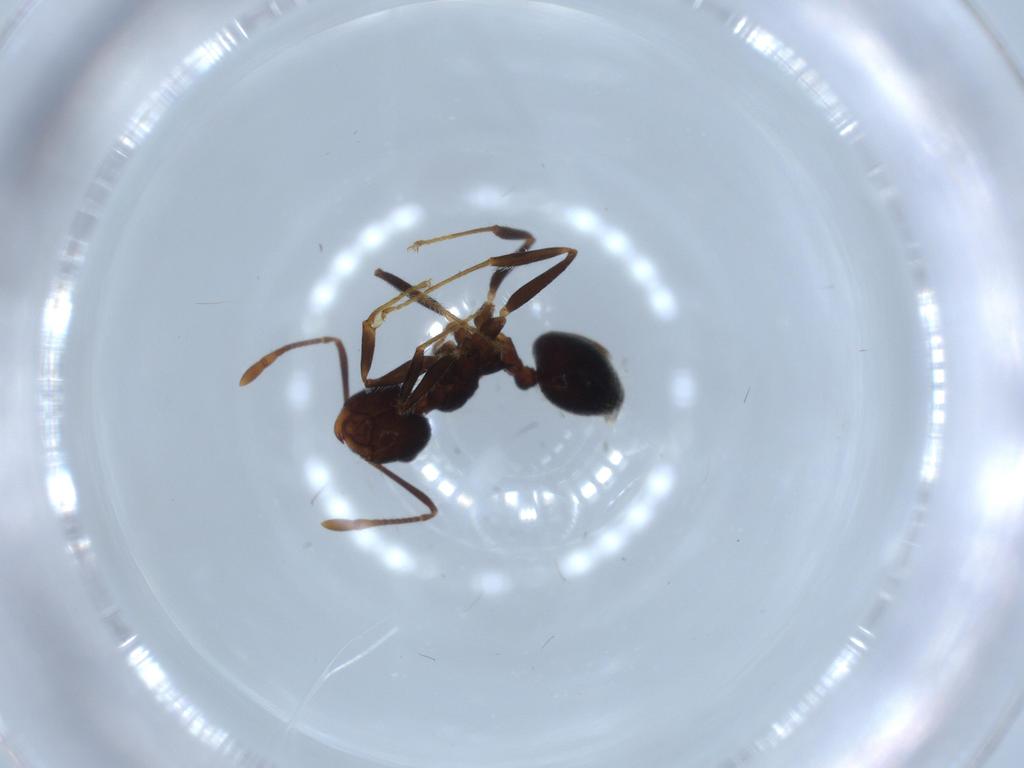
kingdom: Animalia
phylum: Arthropoda
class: Insecta
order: Hymenoptera
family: Formicidae
